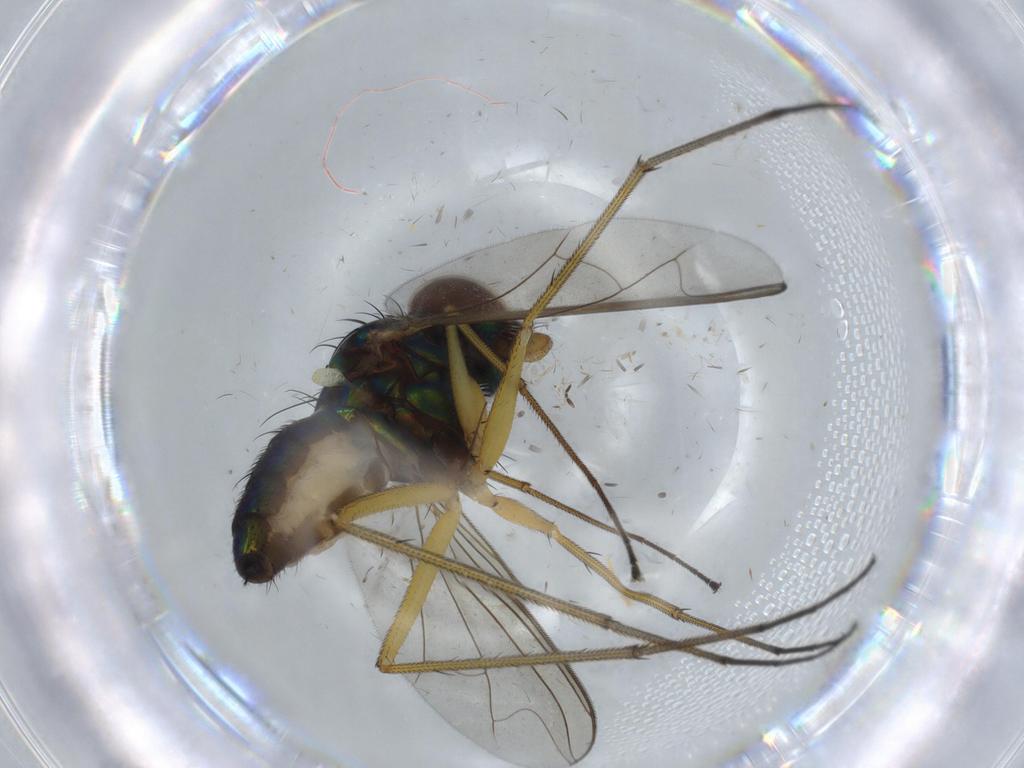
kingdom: Animalia
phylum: Arthropoda
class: Insecta
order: Diptera
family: Dolichopodidae
